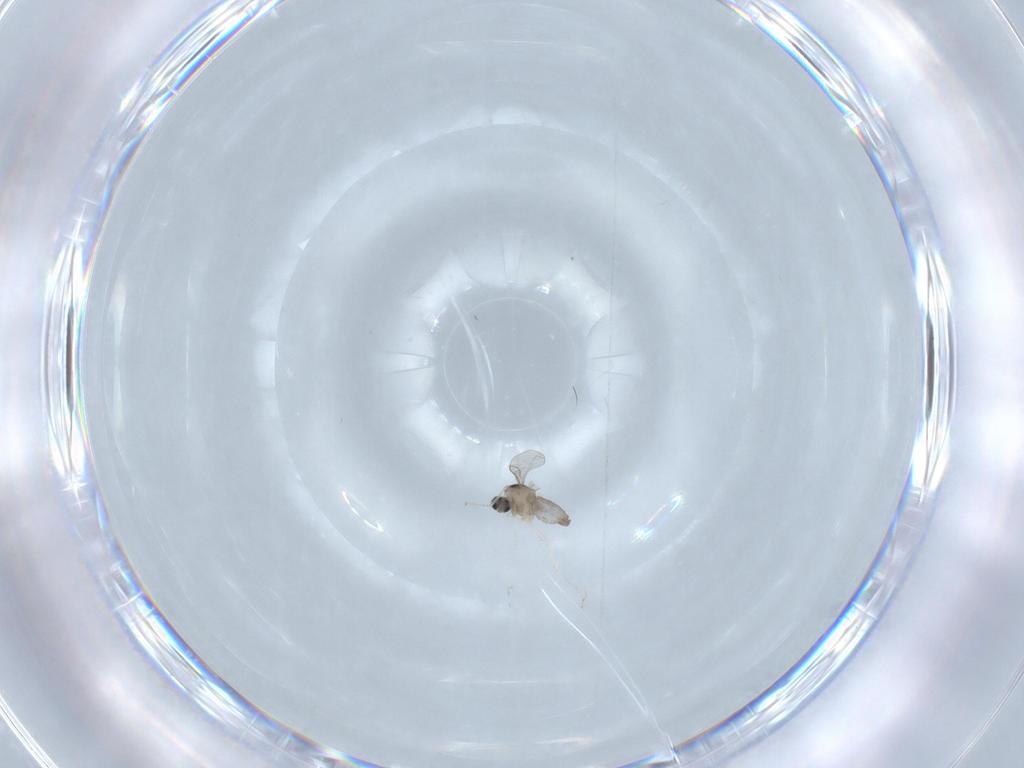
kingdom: Animalia
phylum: Arthropoda
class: Insecta
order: Diptera
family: Cecidomyiidae
